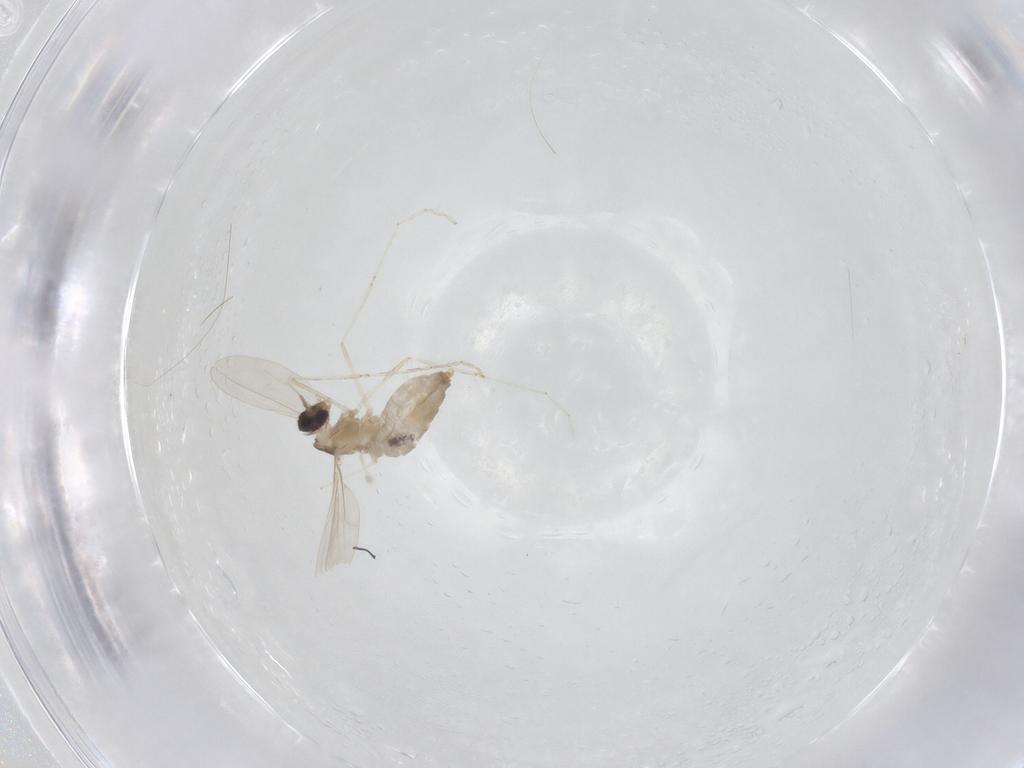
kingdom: Animalia
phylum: Arthropoda
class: Insecta
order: Diptera
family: Cecidomyiidae
